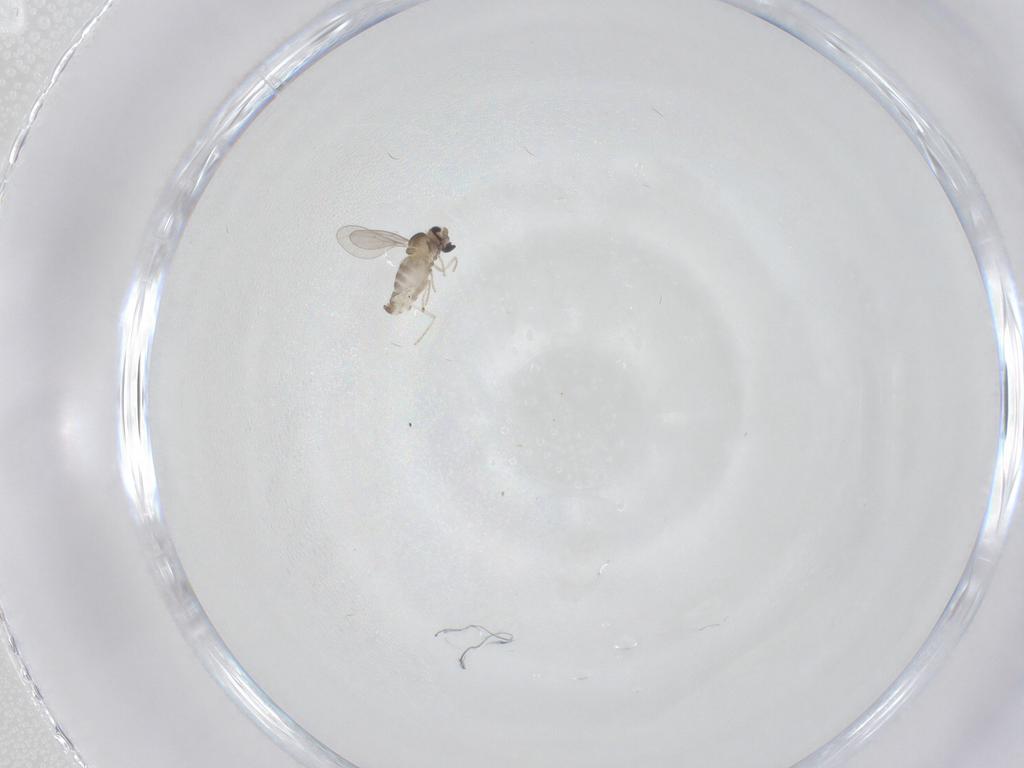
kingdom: Animalia
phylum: Arthropoda
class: Insecta
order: Diptera
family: Cecidomyiidae
